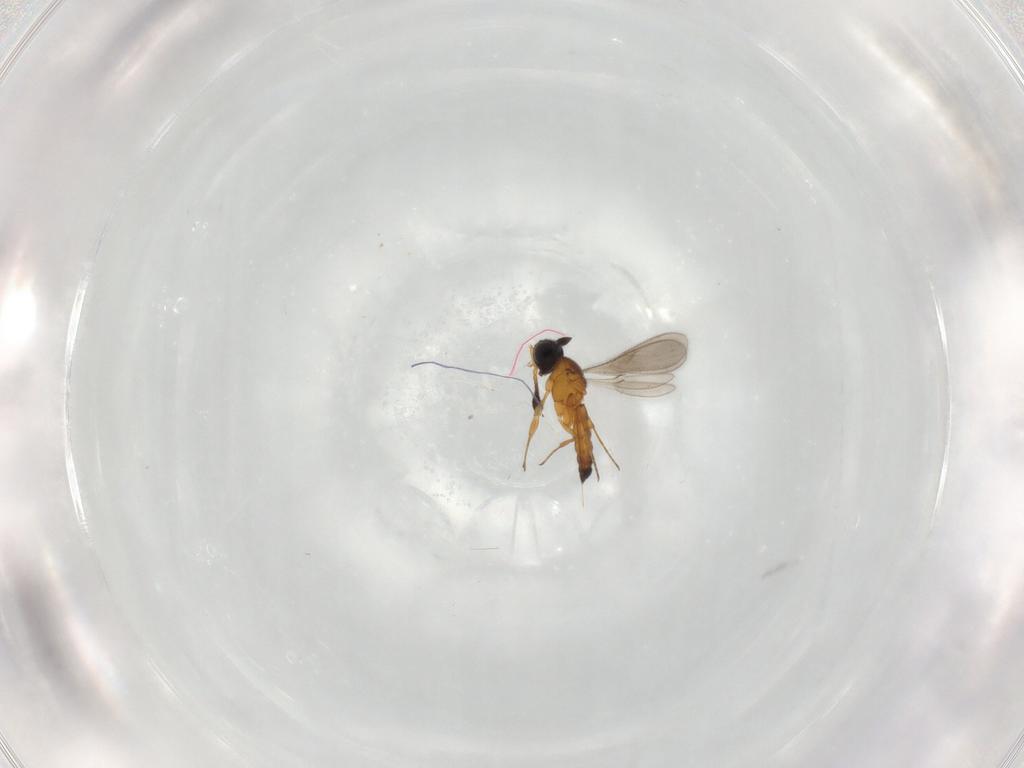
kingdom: Animalia
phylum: Arthropoda
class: Insecta
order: Hymenoptera
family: Scelionidae
